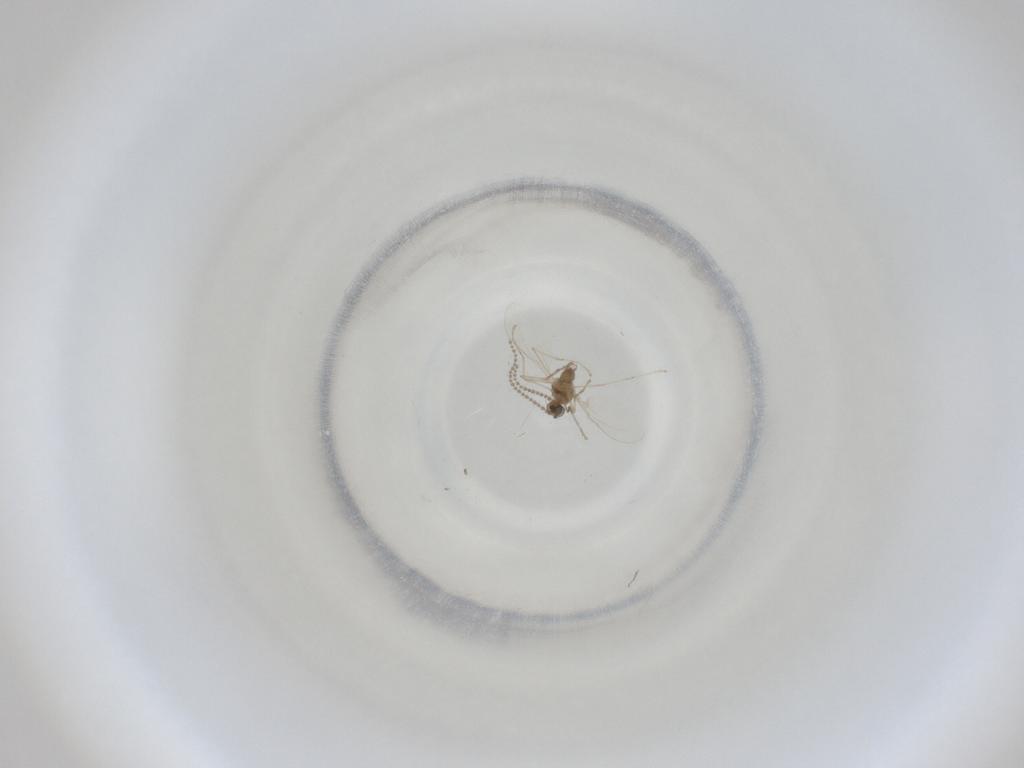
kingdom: Animalia
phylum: Arthropoda
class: Insecta
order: Diptera
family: Cecidomyiidae
